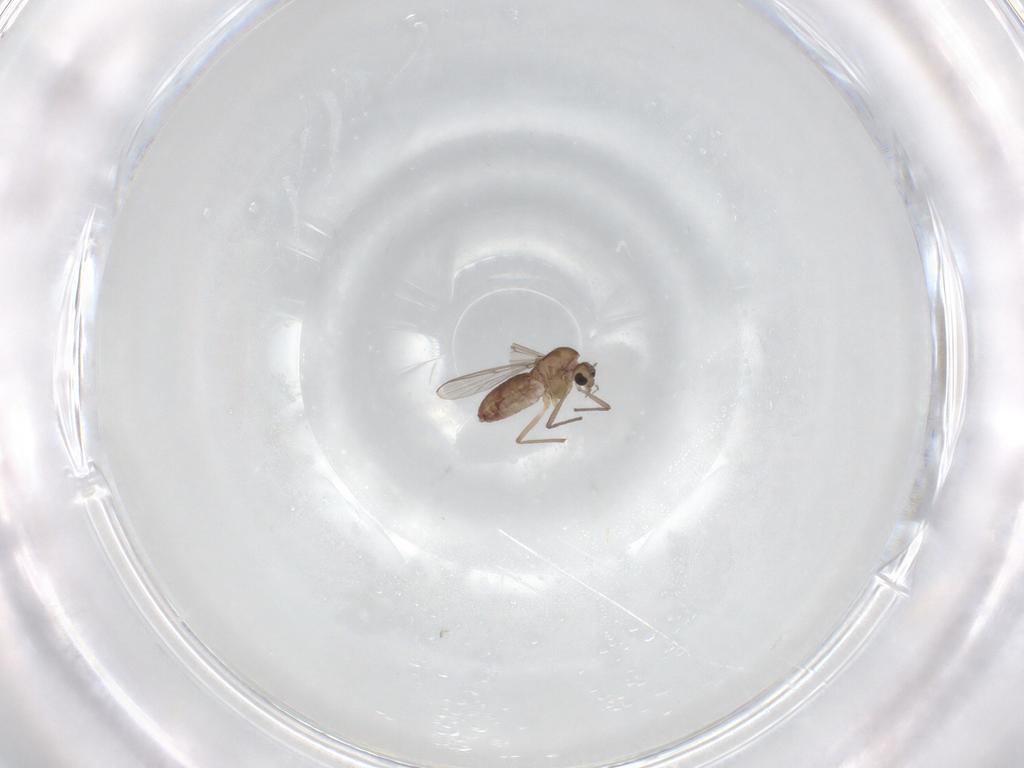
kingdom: Animalia
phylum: Arthropoda
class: Insecta
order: Diptera
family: Chironomidae
